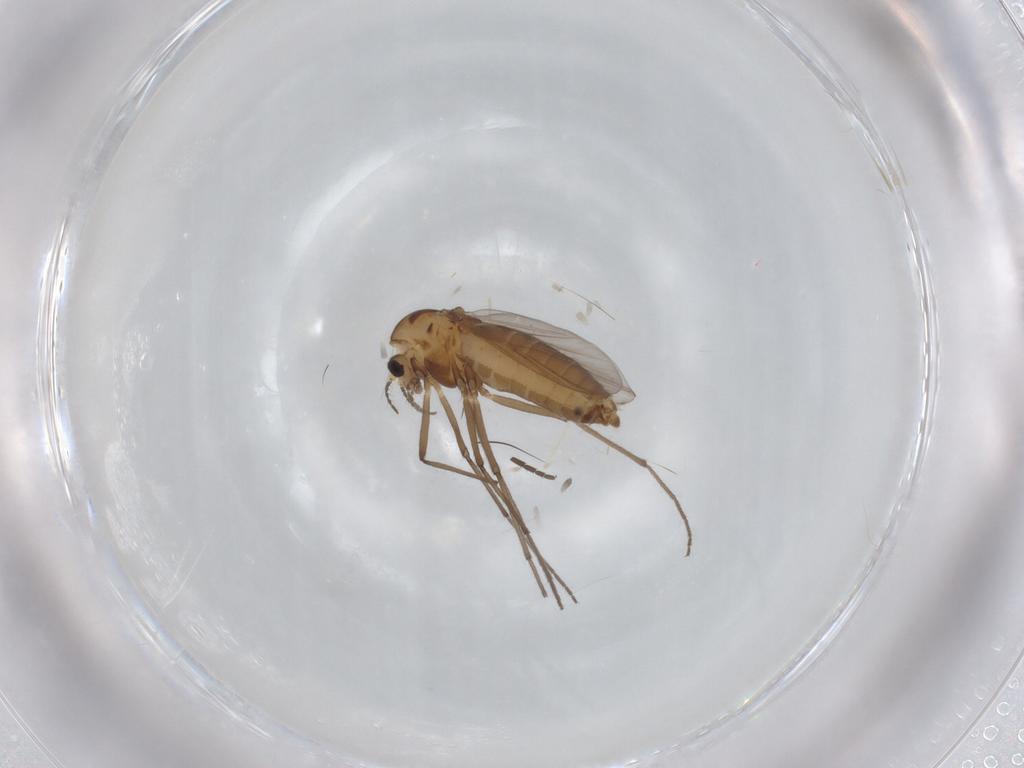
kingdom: Animalia
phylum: Arthropoda
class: Insecta
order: Diptera
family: Chironomidae
